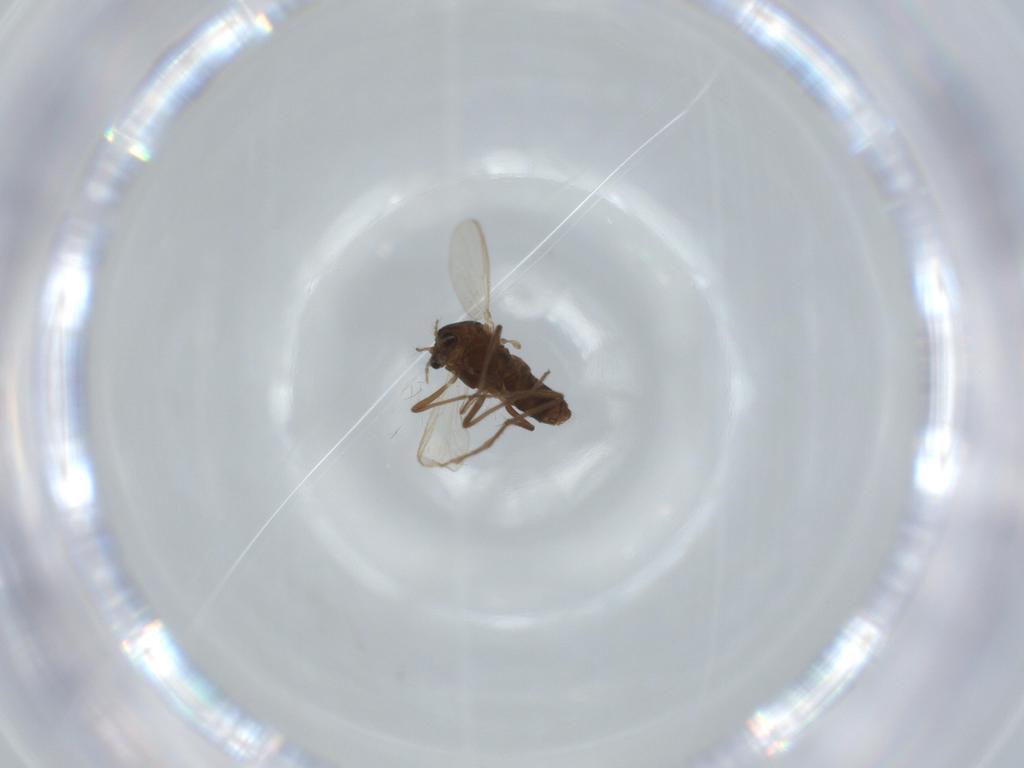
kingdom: Animalia
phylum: Arthropoda
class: Insecta
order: Diptera
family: Chironomidae
